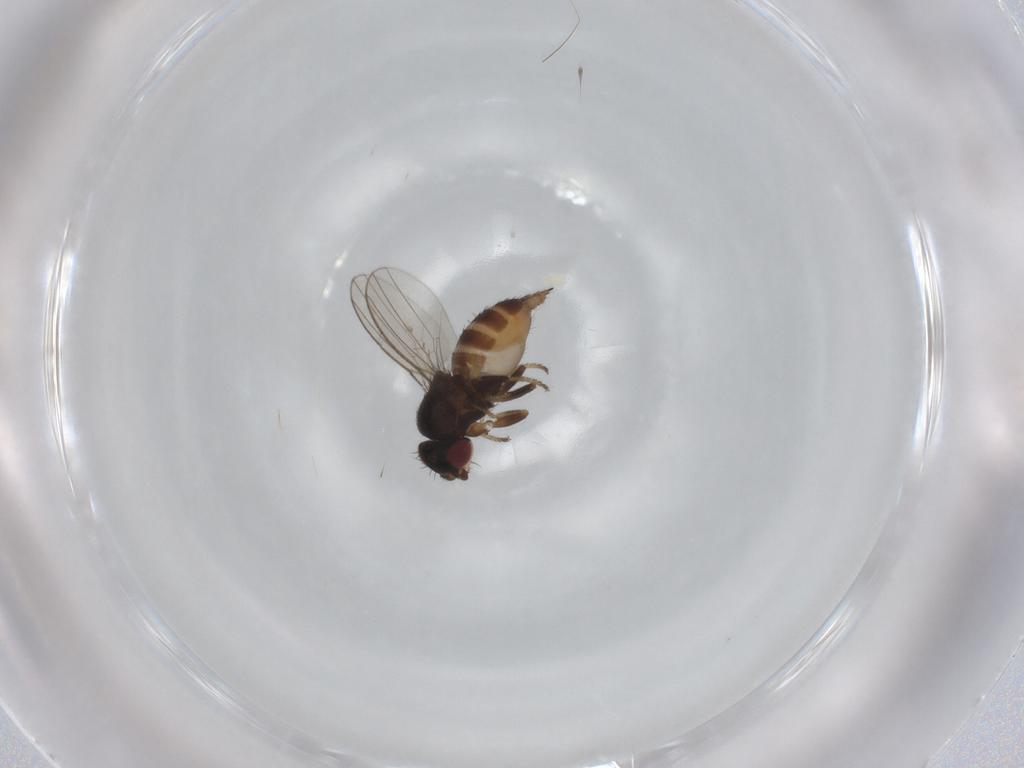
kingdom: Animalia
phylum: Arthropoda
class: Insecta
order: Diptera
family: Milichiidae
